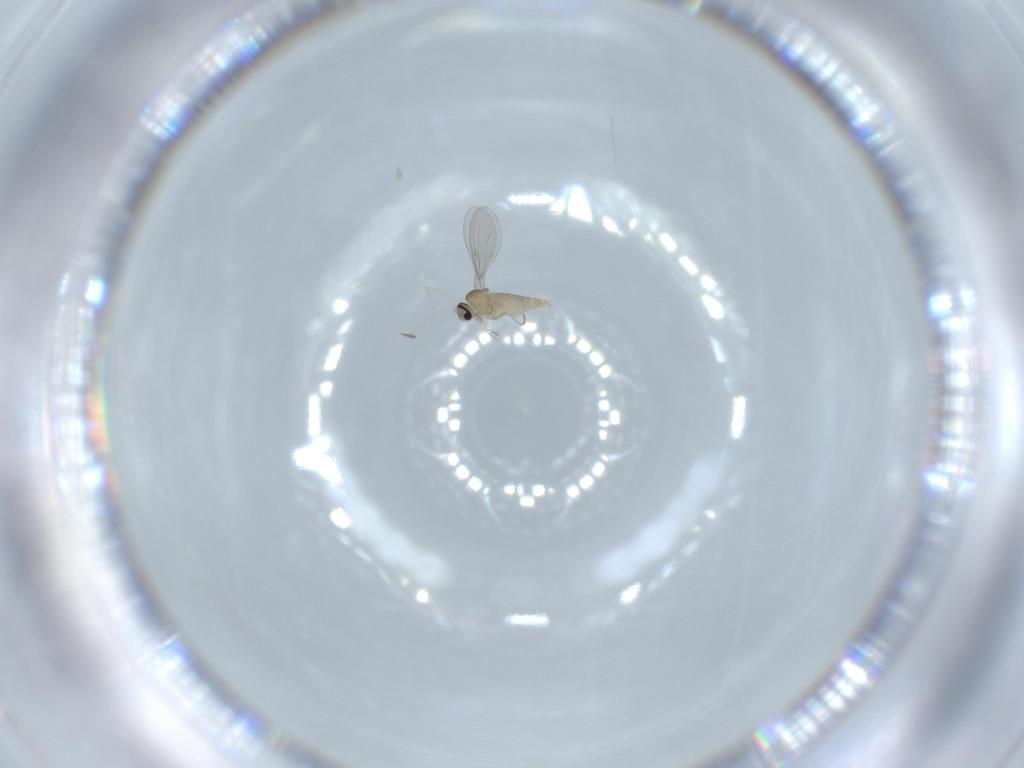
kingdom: Animalia
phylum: Arthropoda
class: Insecta
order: Diptera
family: Cecidomyiidae
